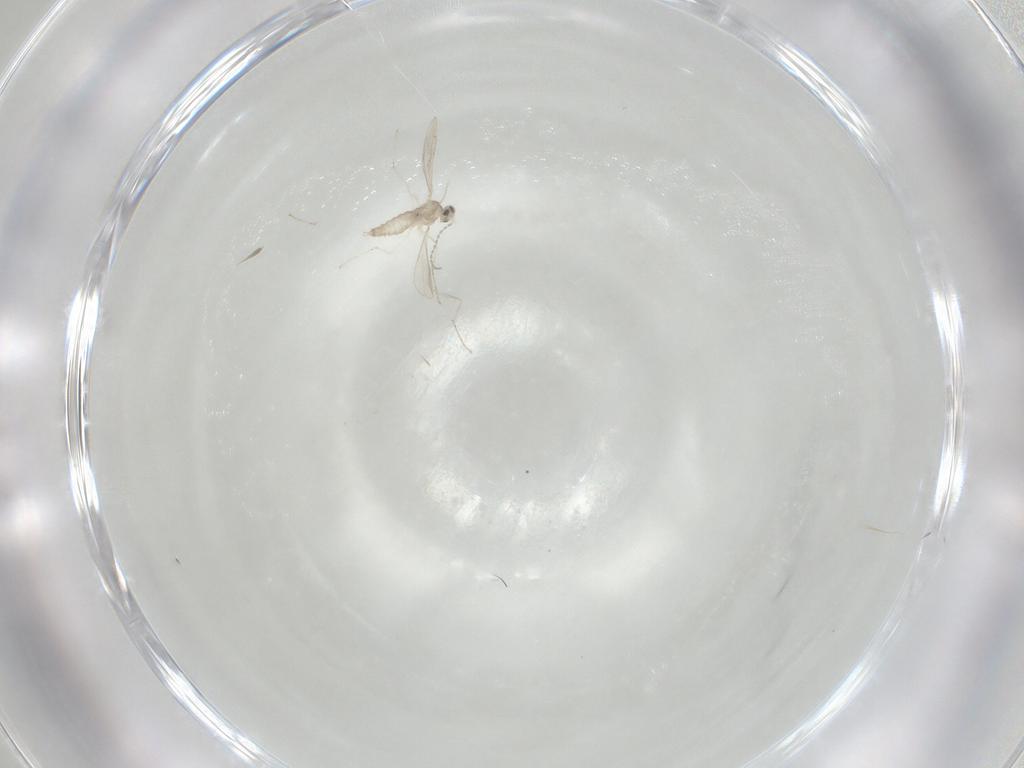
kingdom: Animalia
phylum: Arthropoda
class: Insecta
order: Diptera
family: Cecidomyiidae
